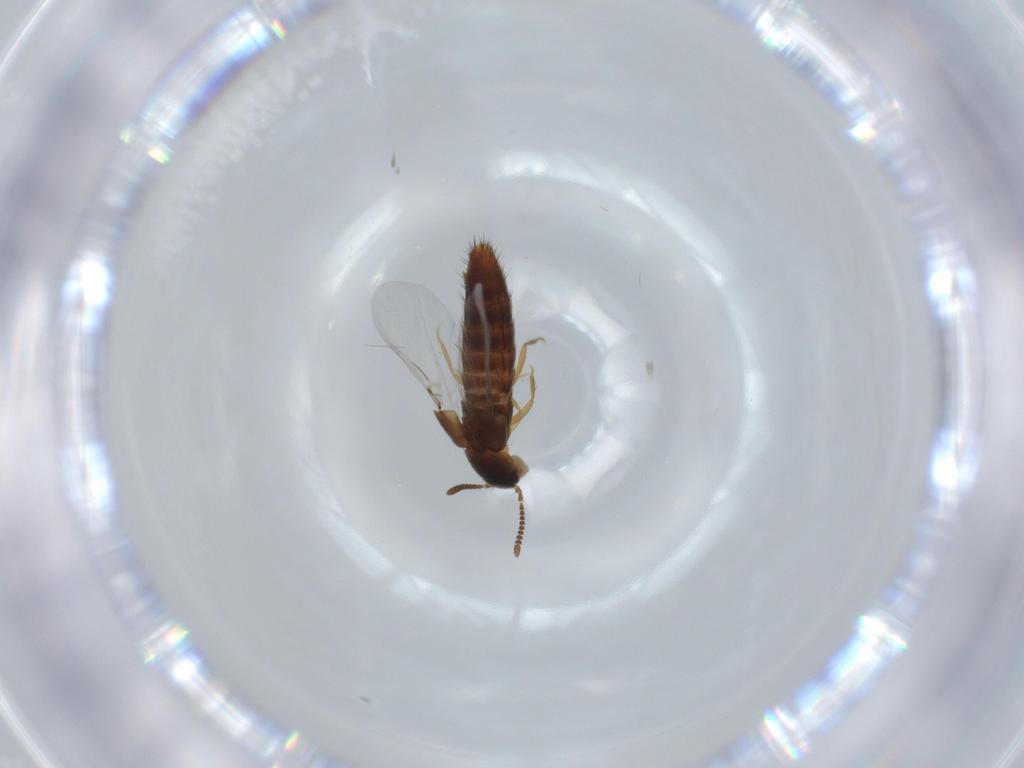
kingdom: Animalia
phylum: Arthropoda
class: Insecta
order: Coleoptera
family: Staphylinidae
